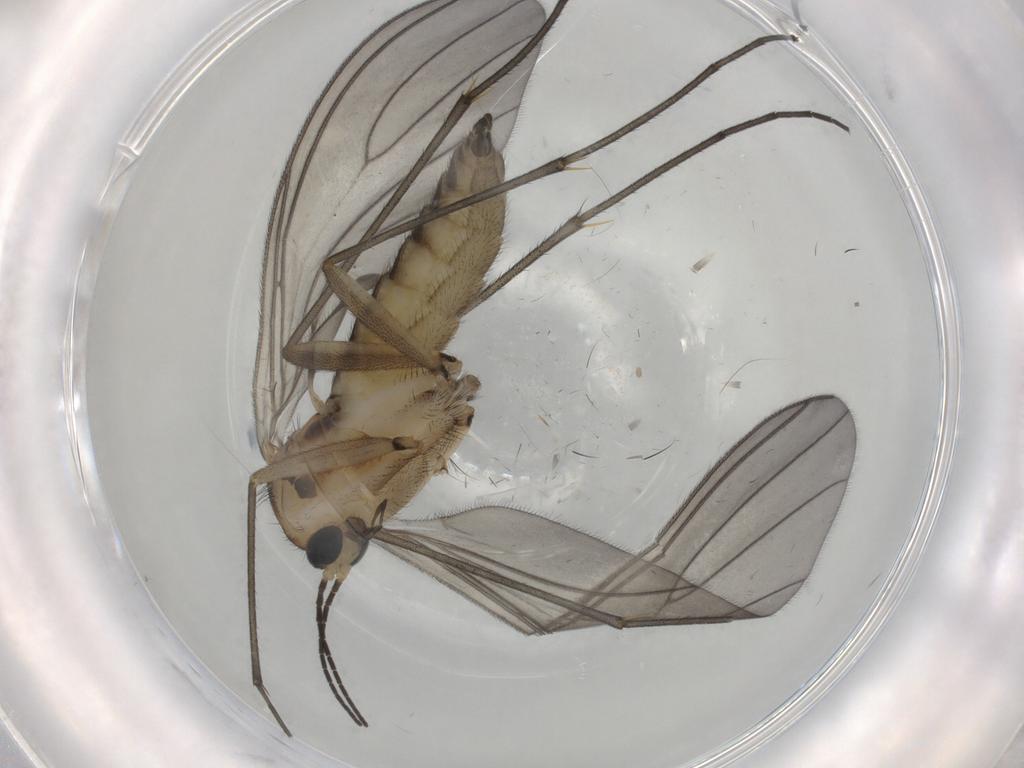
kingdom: Animalia
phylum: Arthropoda
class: Insecta
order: Diptera
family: Sciaridae
